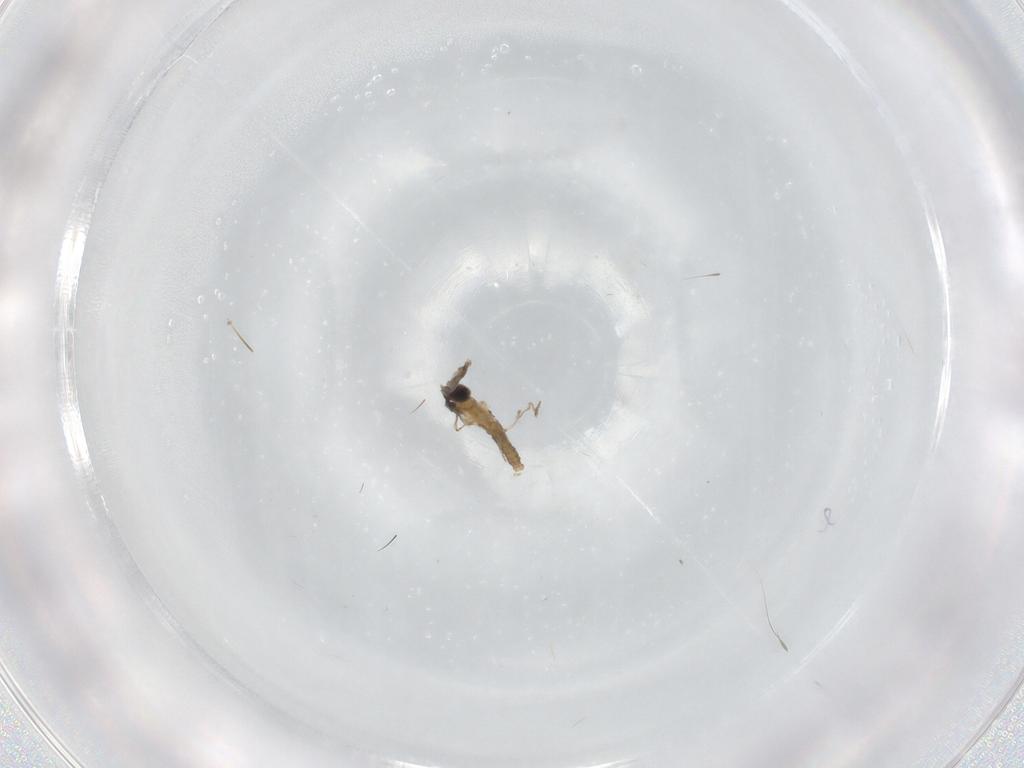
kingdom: Animalia
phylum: Arthropoda
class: Insecta
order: Diptera
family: Cecidomyiidae
